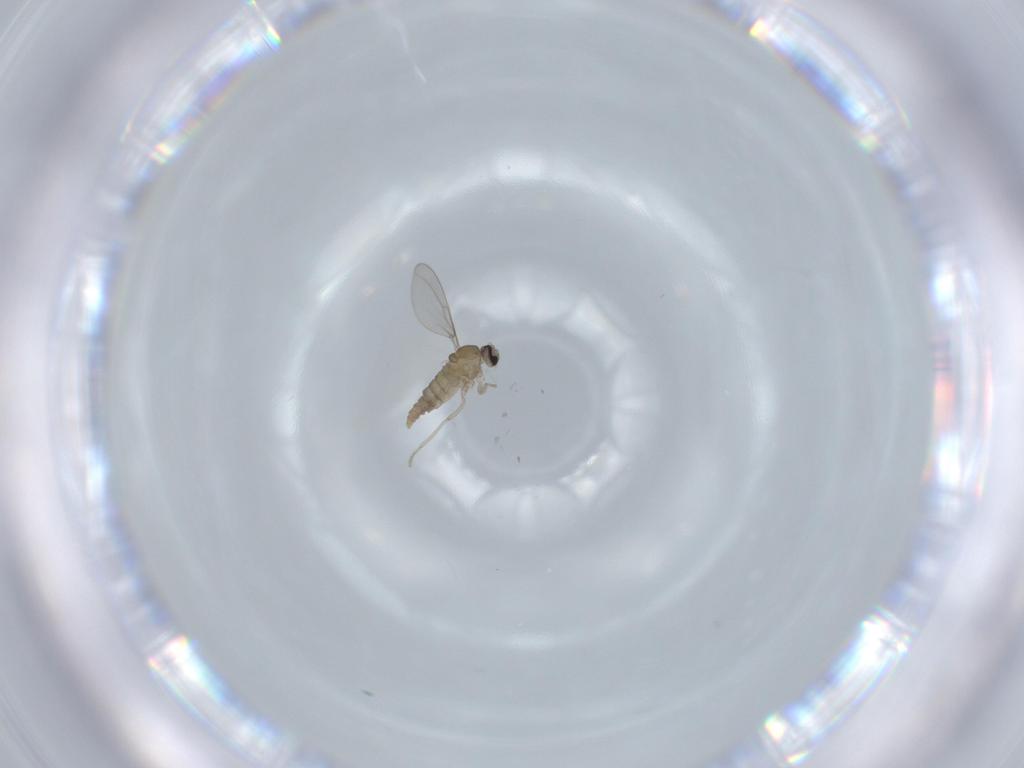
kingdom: Animalia
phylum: Arthropoda
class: Insecta
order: Diptera
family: Cecidomyiidae
